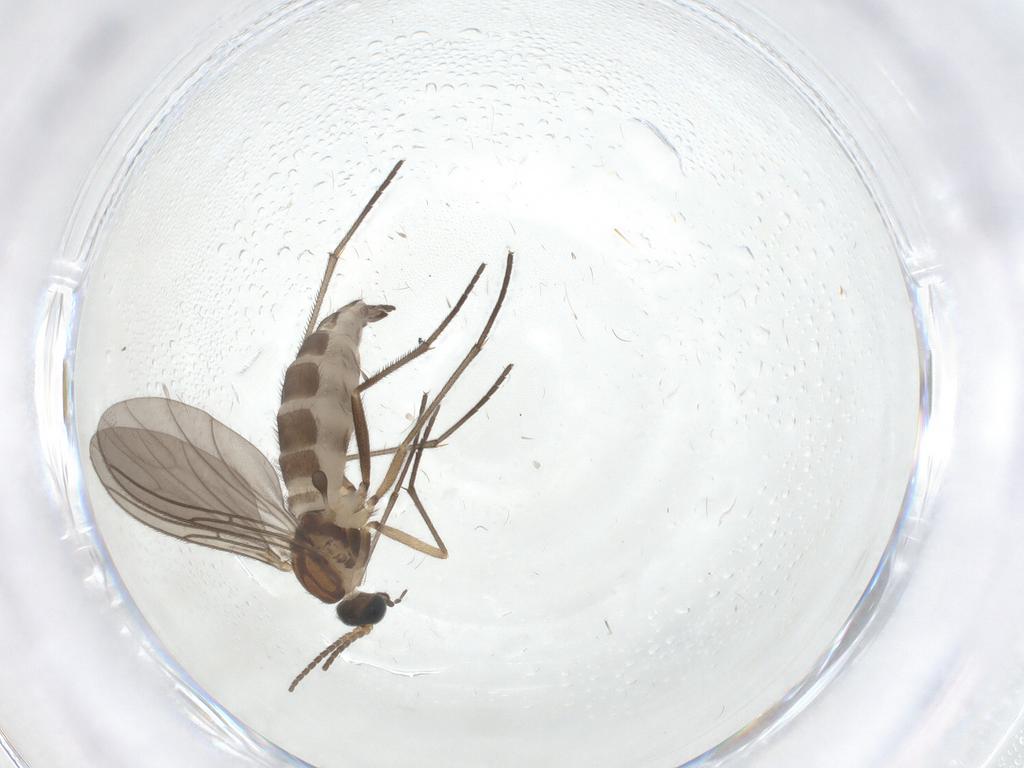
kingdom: Animalia
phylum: Arthropoda
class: Insecta
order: Diptera
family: Sciaridae
